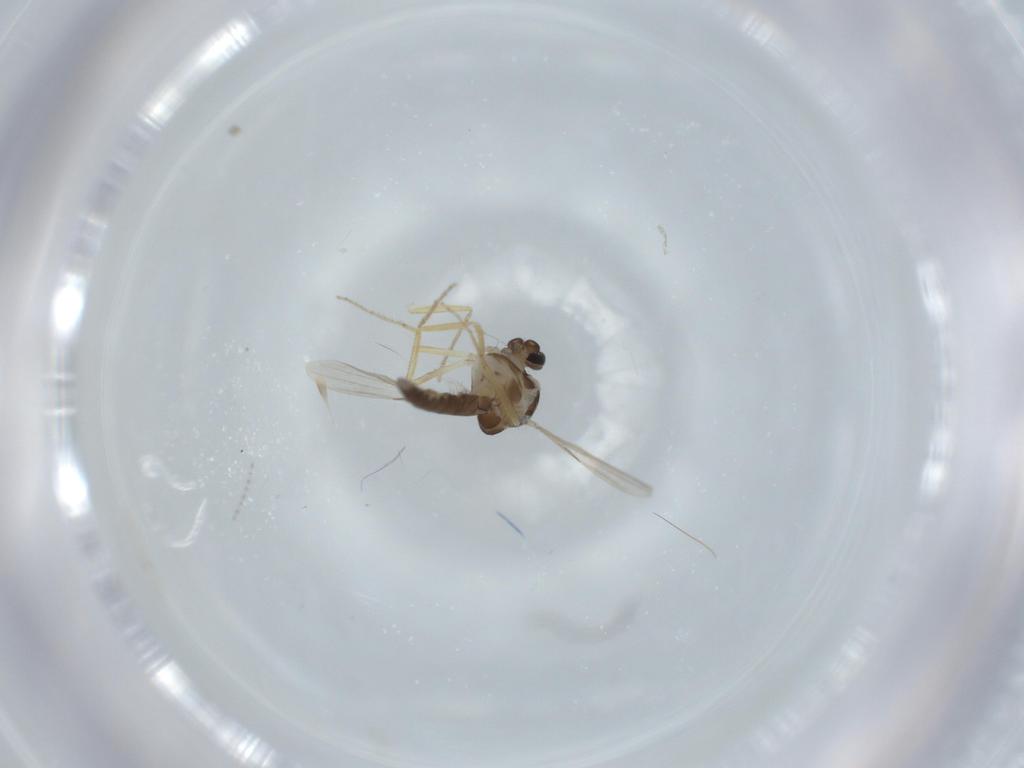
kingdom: Animalia
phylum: Arthropoda
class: Insecta
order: Diptera
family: Ceratopogonidae
